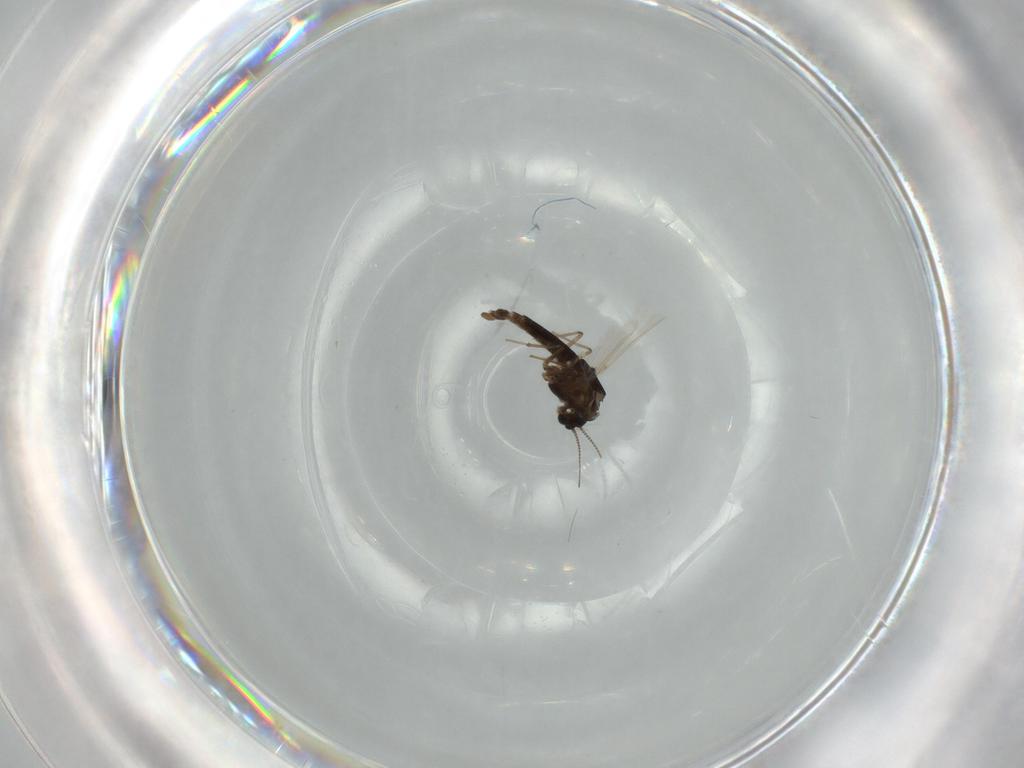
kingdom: Animalia
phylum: Arthropoda
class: Insecta
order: Diptera
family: Chironomidae
